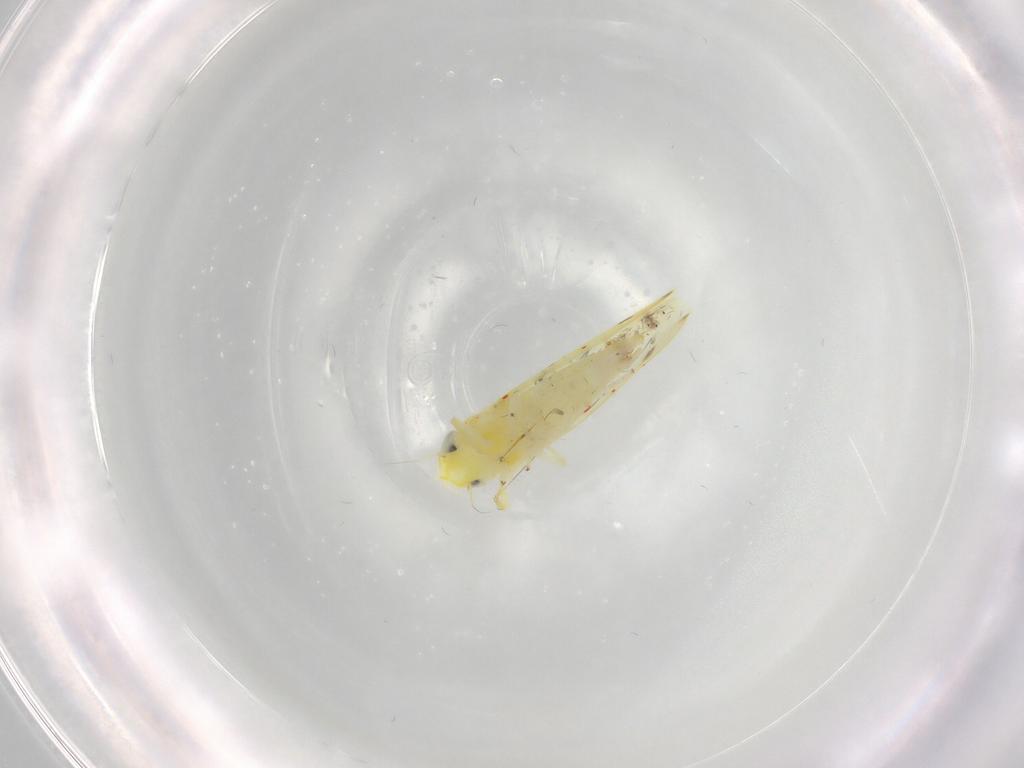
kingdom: Animalia
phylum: Arthropoda
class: Insecta
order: Hemiptera
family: Cicadellidae
